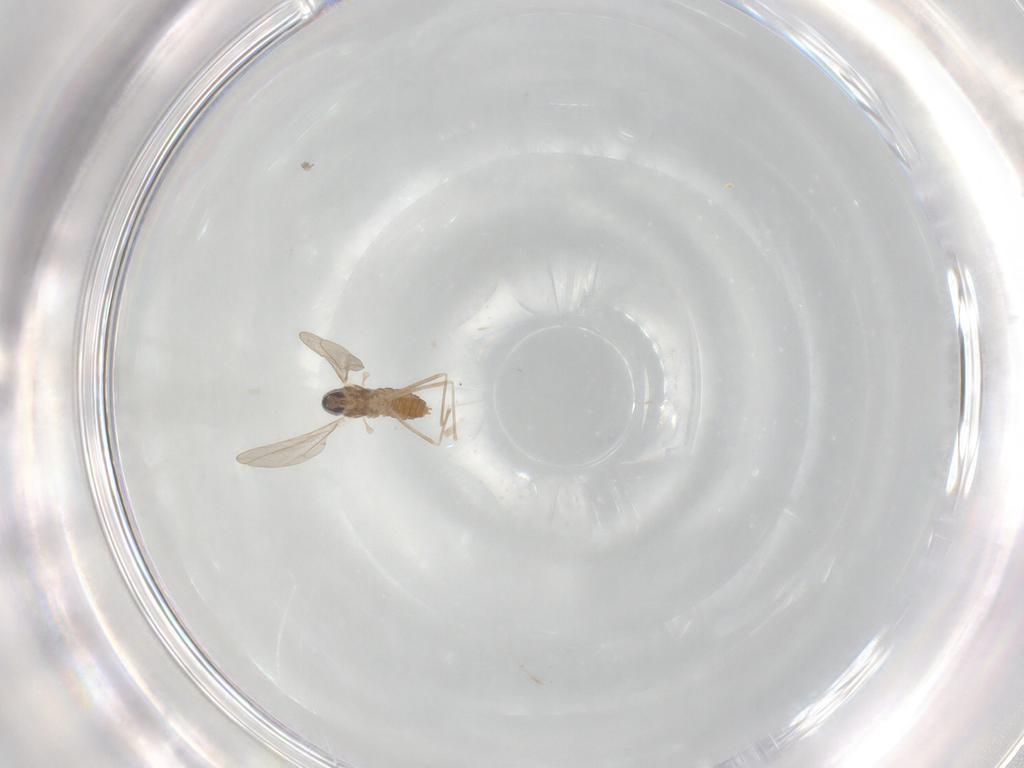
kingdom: Animalia
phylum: Arthropoda
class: Insecta
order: Diptera
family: Cecidomyiidae
